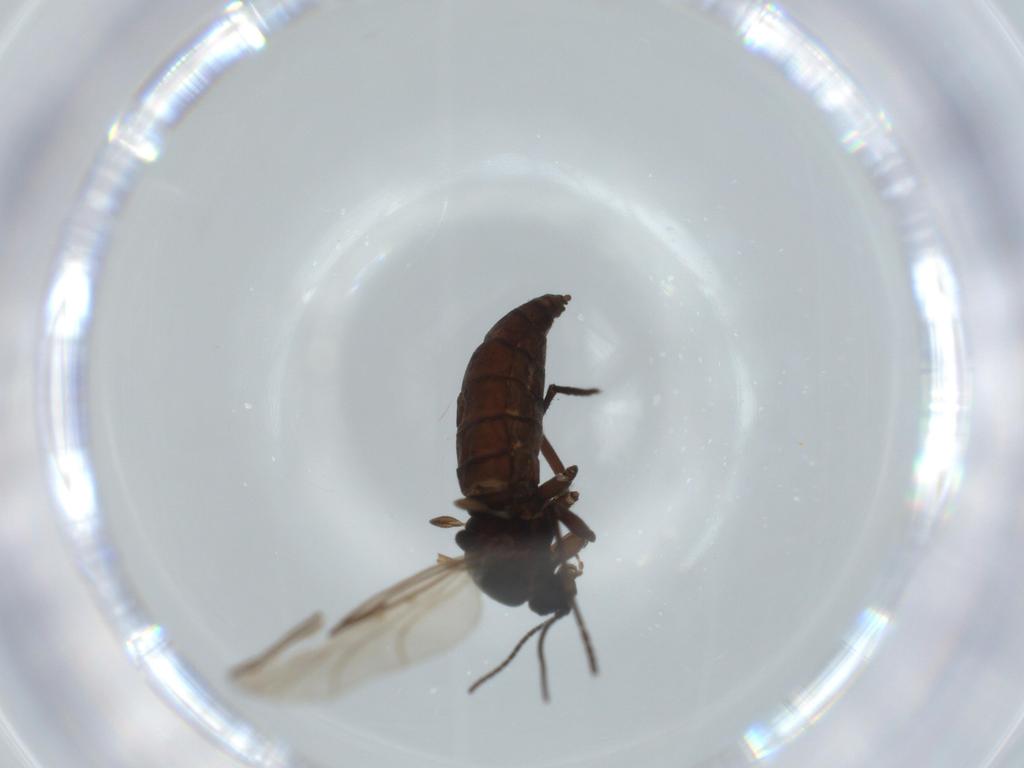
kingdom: Animalia
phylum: Arthropoda
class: Insecta
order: Diptera
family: Sciaridae
